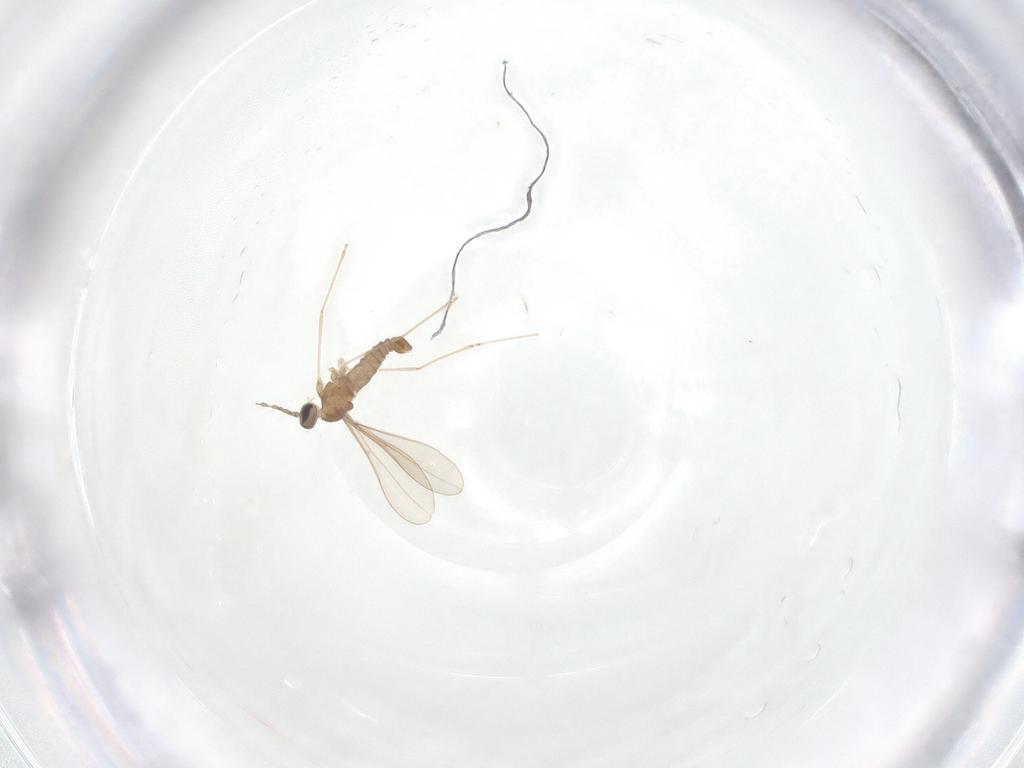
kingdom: Animalia
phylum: Arthropoda
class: Insecta
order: Diptera
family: Cecidomyiidae
